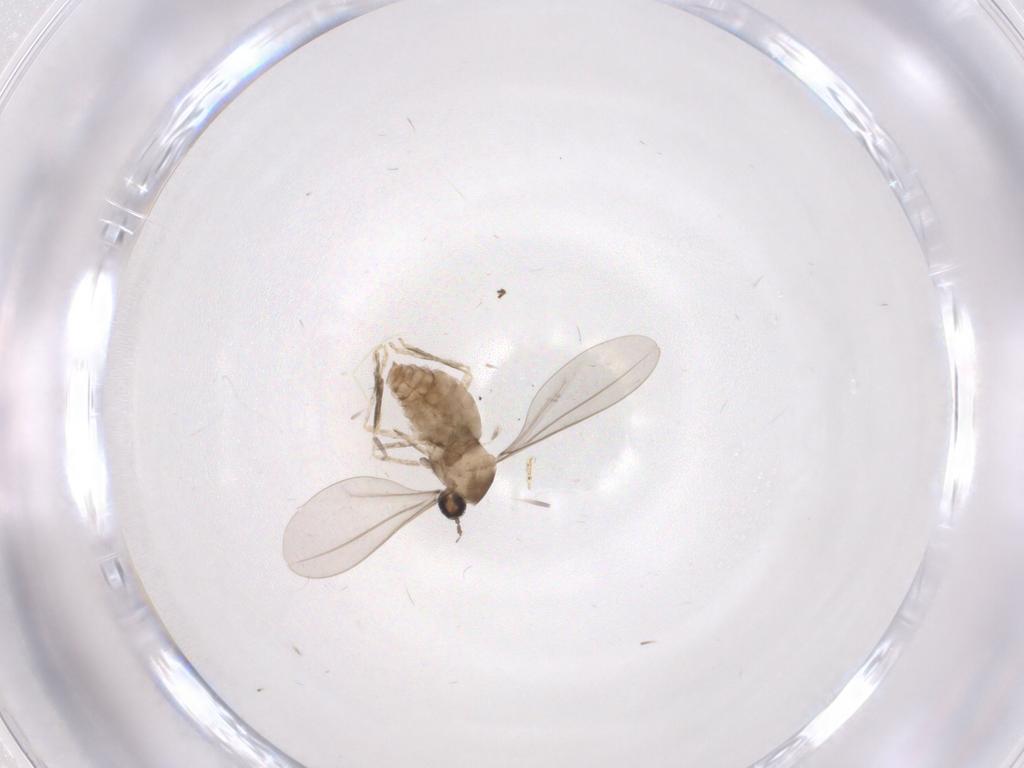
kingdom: Animalia
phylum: Arthropoda
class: Insecta
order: Diptera
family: Cecidomyiidae
